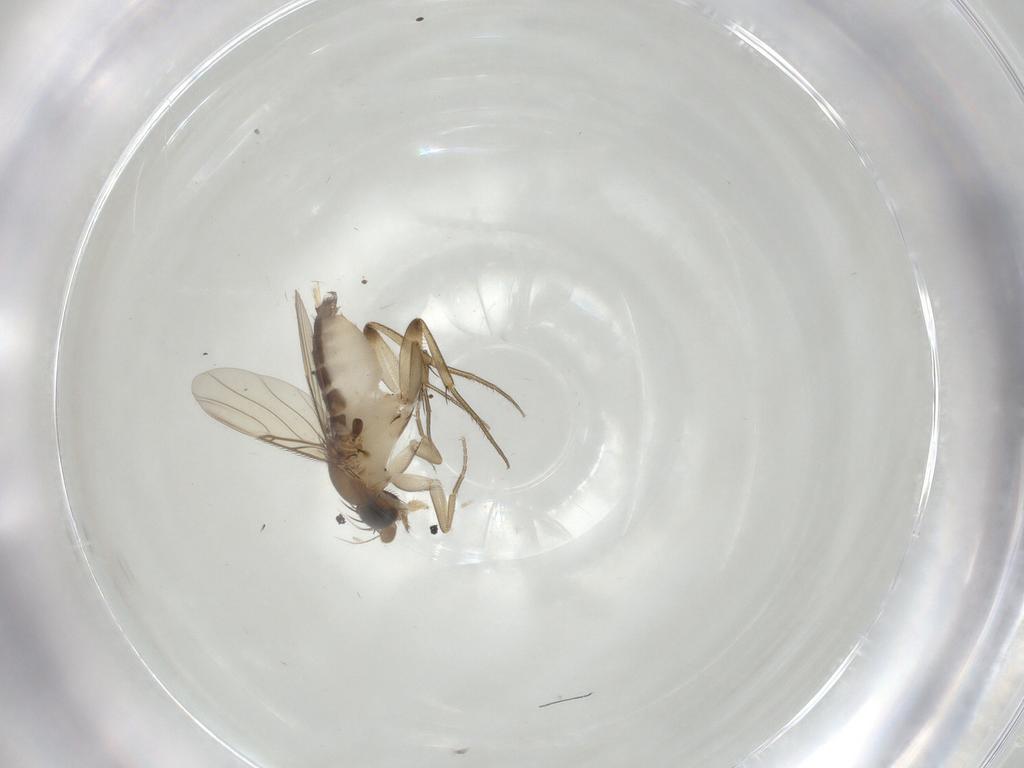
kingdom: Animalia
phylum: Arthropoda
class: Insecta
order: Diptera
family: Phoridae
